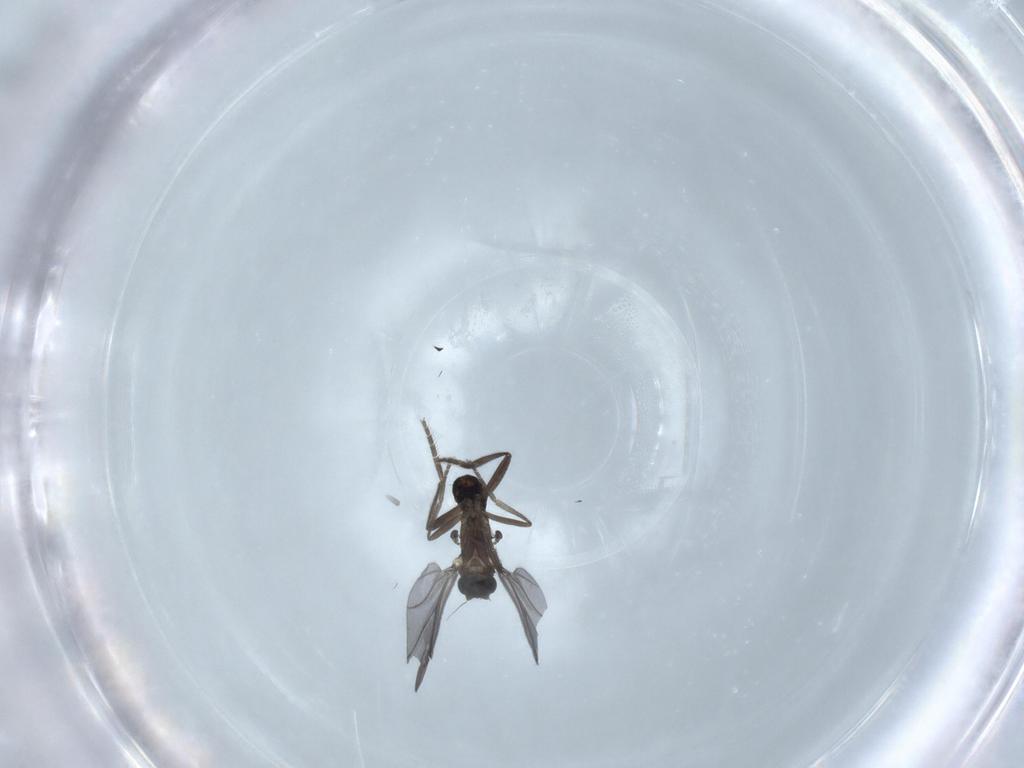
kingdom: Animalia
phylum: Arthropoda
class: Insecta
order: Diptera
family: Phoridae
